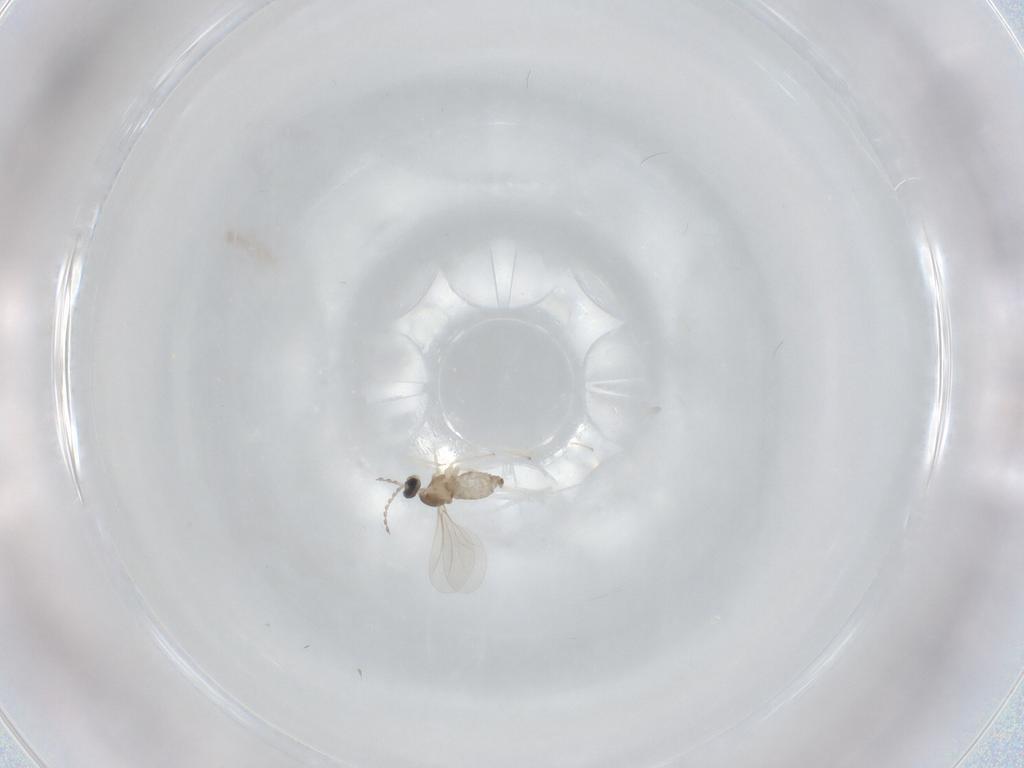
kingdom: Animalia
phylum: Arthropoda
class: Insecta
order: Diptera
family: Cecidomyiidae
